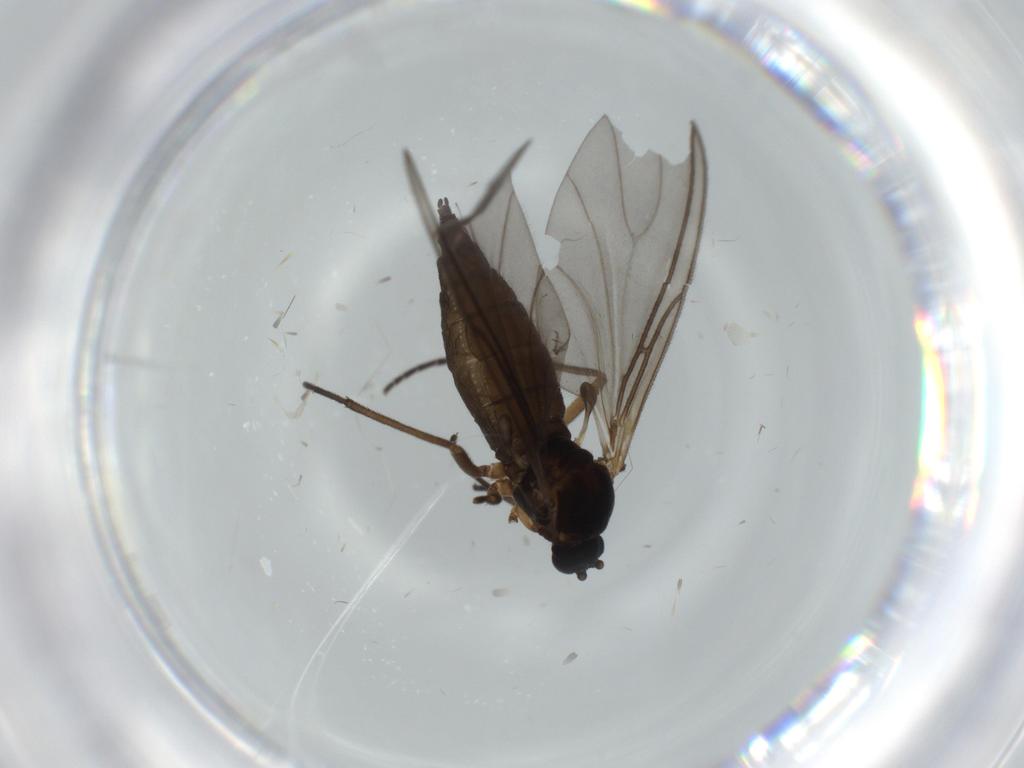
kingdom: Animalia
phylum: Arthropoda
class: Insecta
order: Diptera
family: Sciaridae
